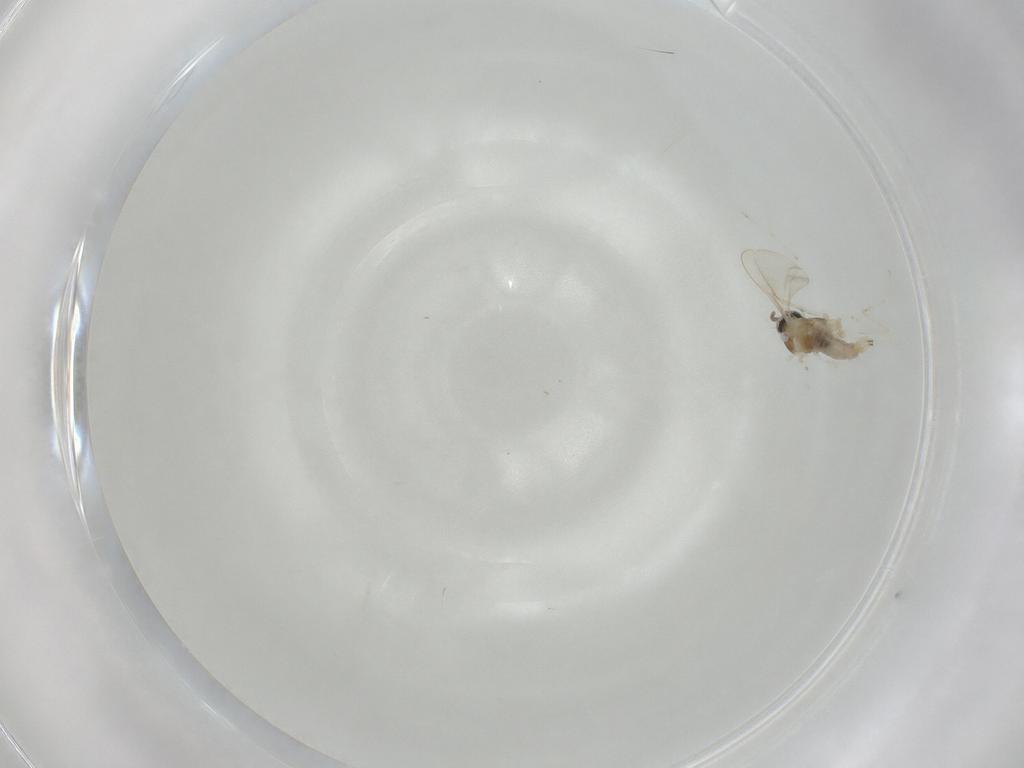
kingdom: Animalia
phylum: Arthropoda
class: Insecta
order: Diptera
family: Cecidomyiidae
